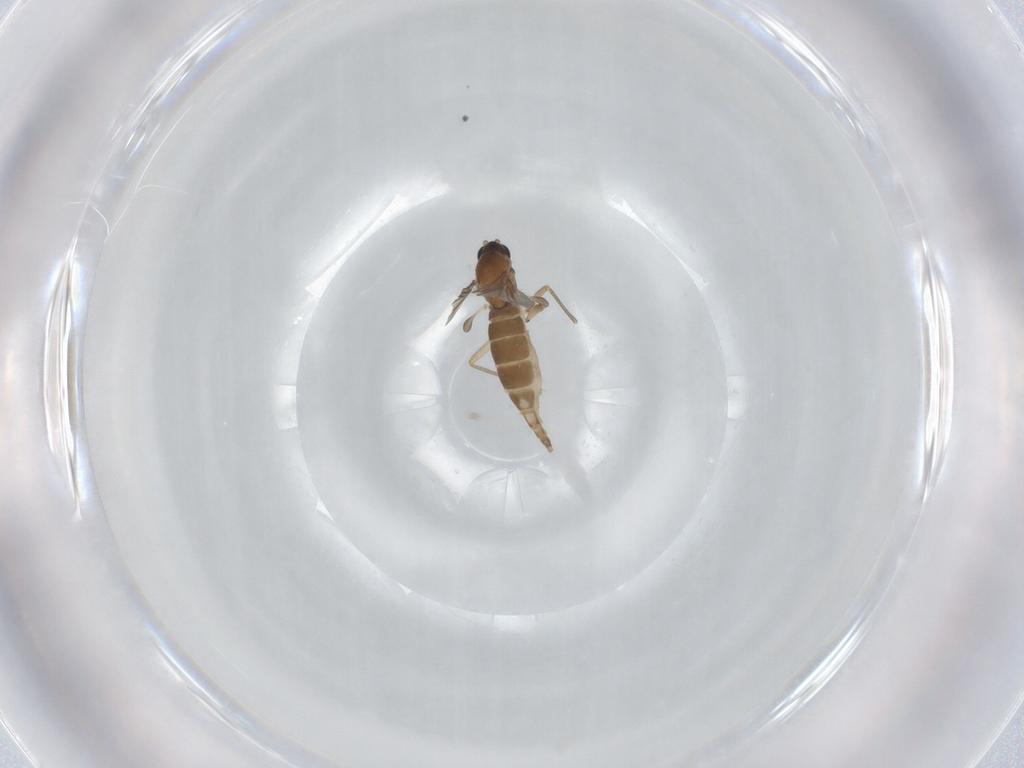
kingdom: Animalia
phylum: Arthropoda
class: Insecta
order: Diptera
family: Sciaridae
